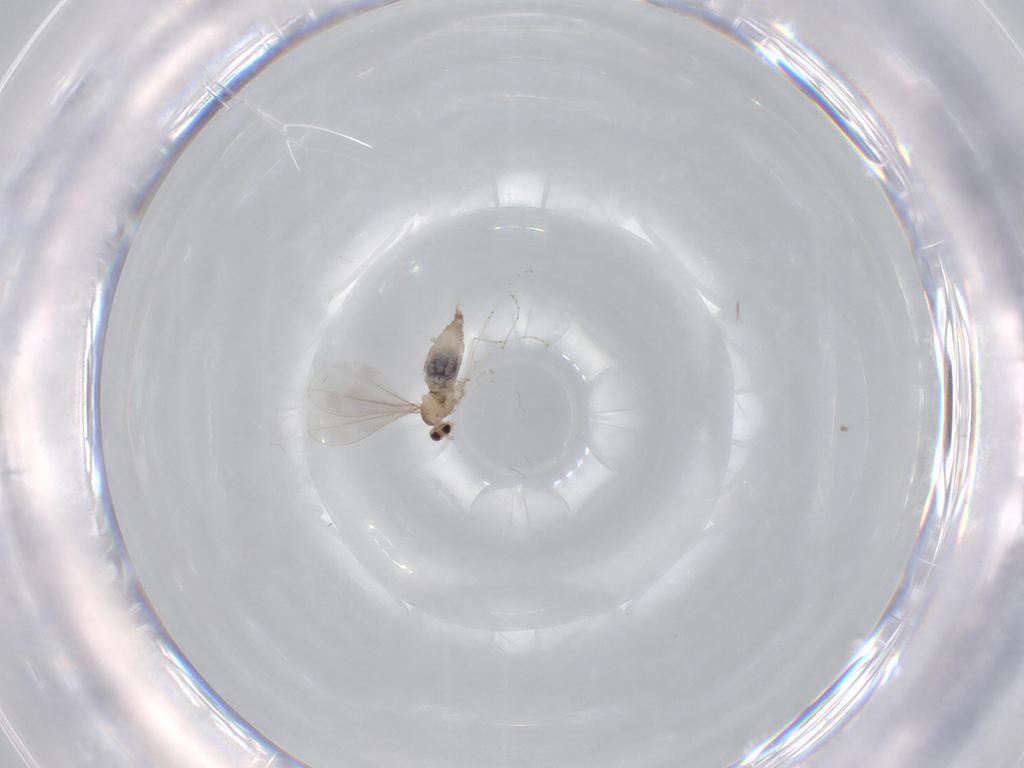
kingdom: Animalia
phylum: Arthropoda
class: Insecta
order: Diptera
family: Cecidomyiidae
